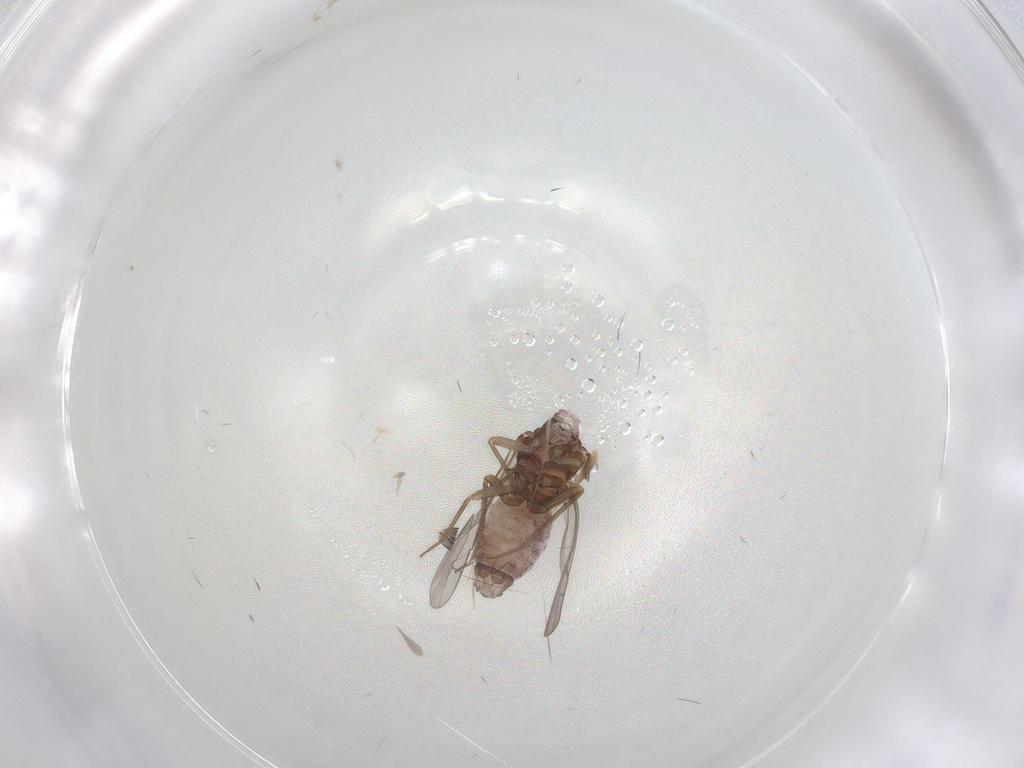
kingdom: Animalia
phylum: Arthropoda
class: Insecta
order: Psocodea
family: Lachesillidae
